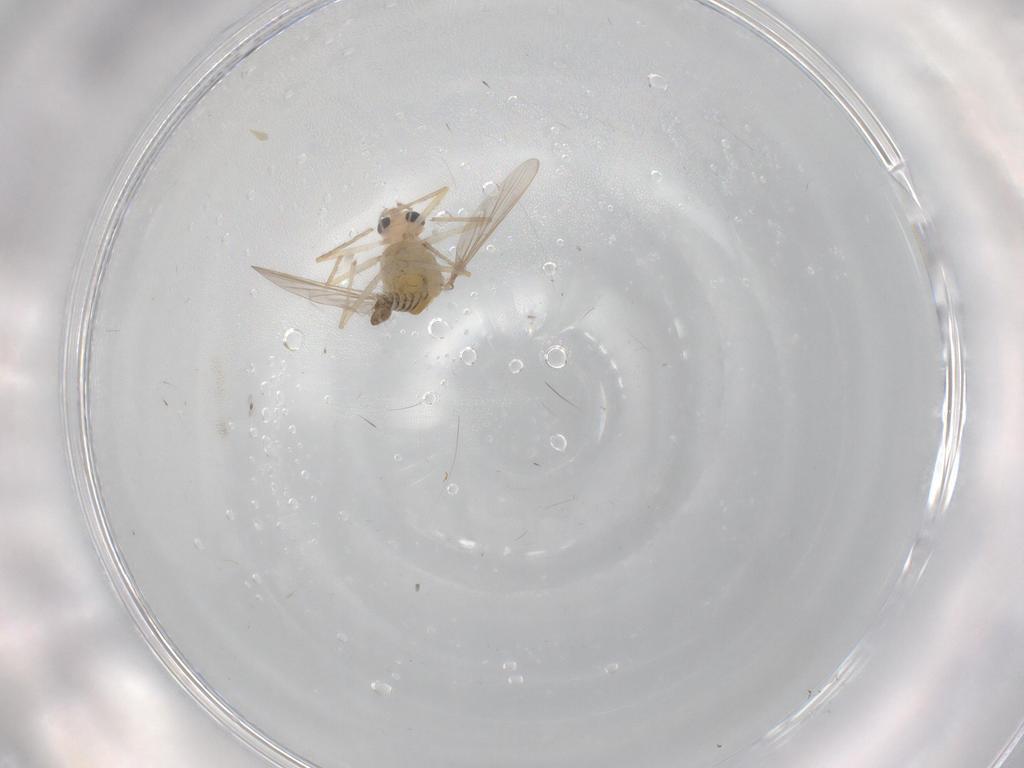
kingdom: Animalia
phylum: Arthropoda
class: Insecta
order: Diptera
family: Chironomidae
